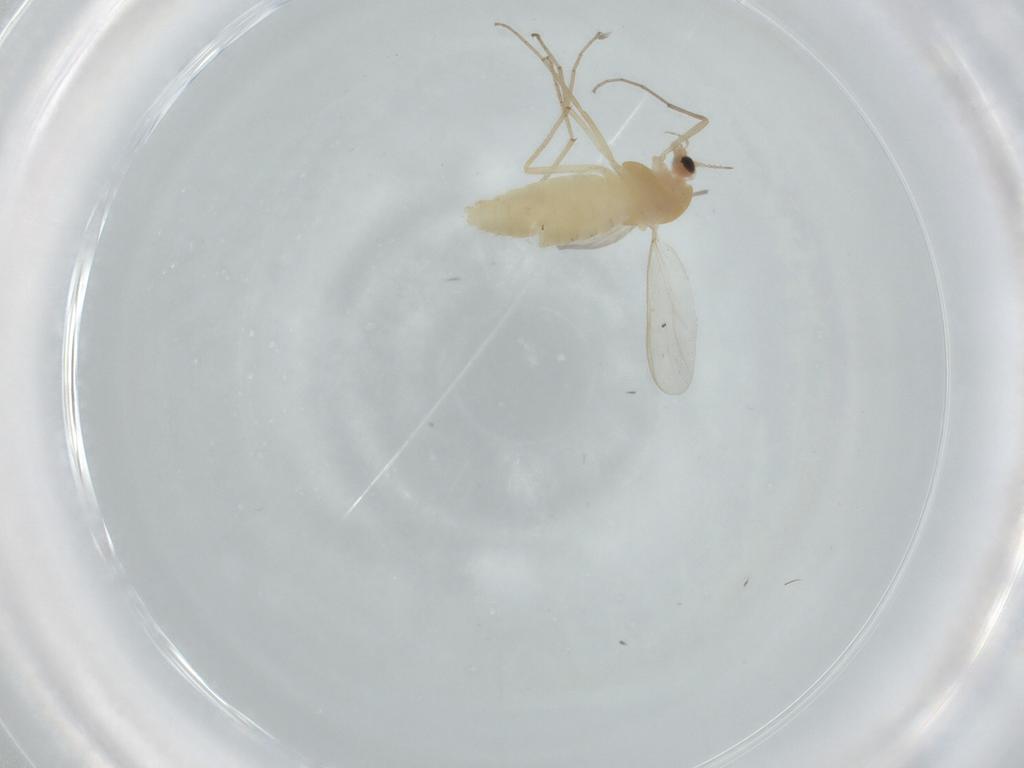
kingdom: Animalia
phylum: Arthropoda
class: Insecta
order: Diptera
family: Chironomidae
